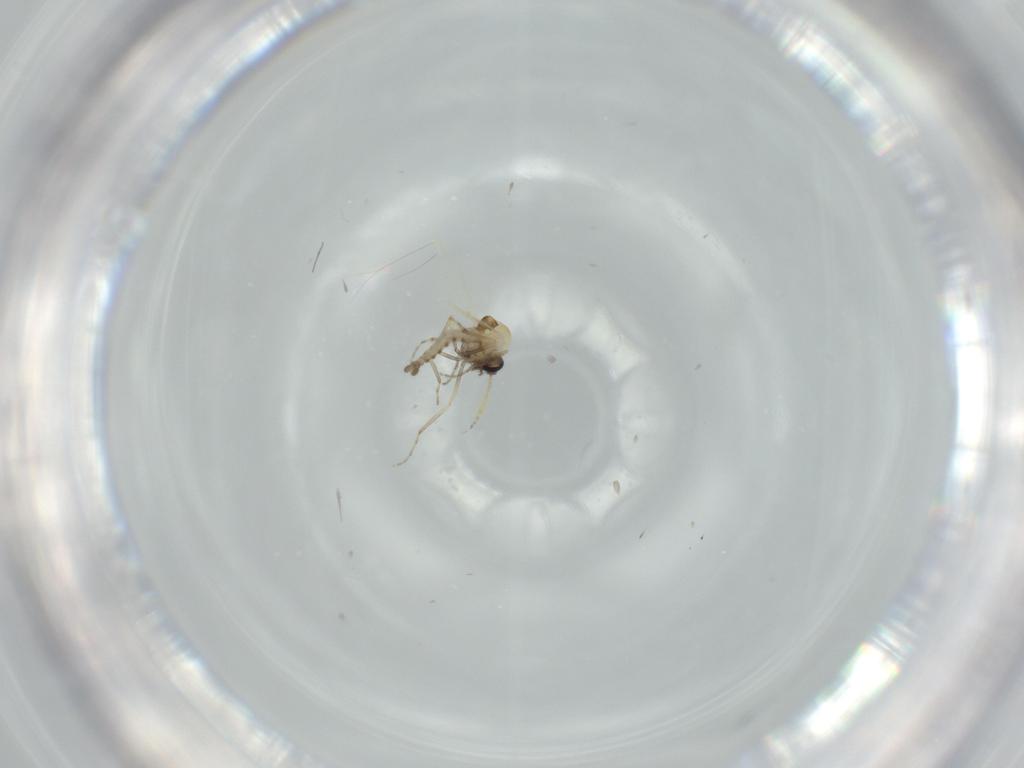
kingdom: Animalia
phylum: Arthropoda
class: Insecta
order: Diptera
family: Ceratopogonidae
